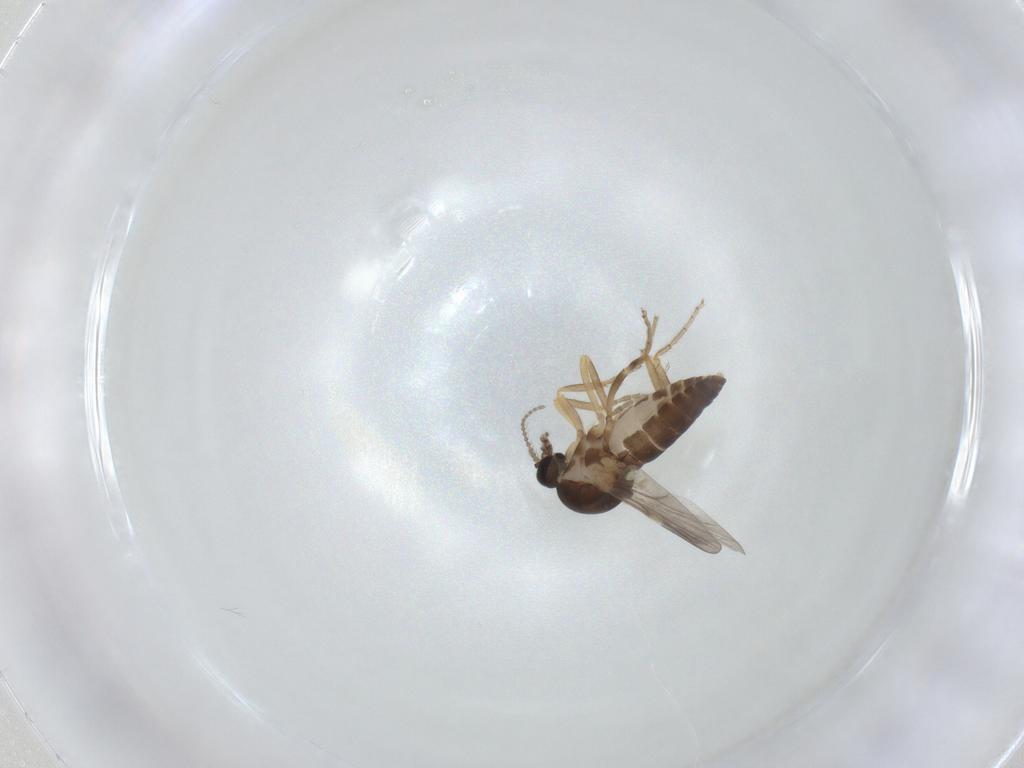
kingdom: Animalia
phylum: Arthropoda
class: Insecta
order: Diptera
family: Ceratopogonidae
